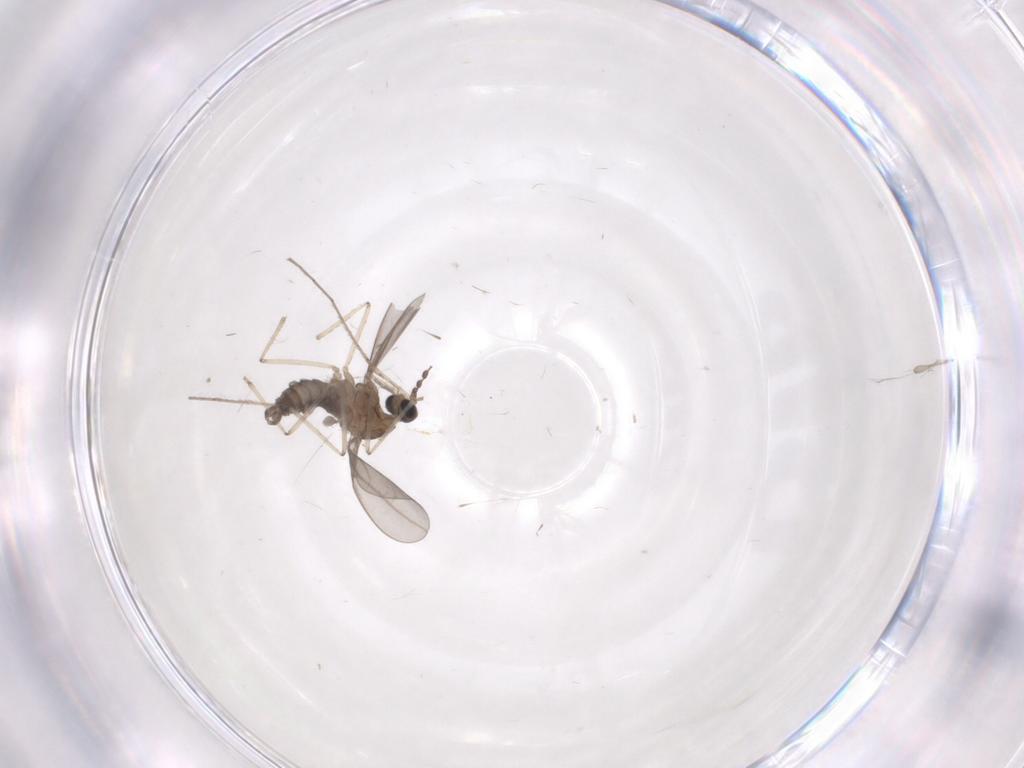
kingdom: Animalia
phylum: Arthropoda
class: Insecta
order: Diptera
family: Cecidomyiidae
